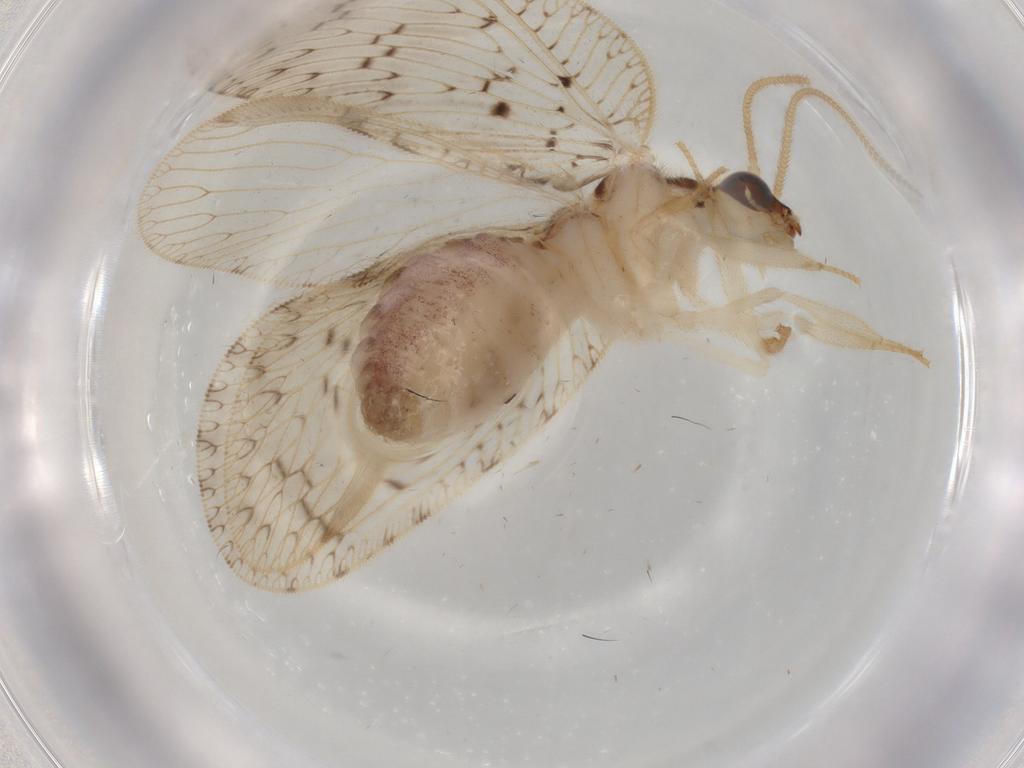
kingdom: Animalia
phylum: Arthropoda
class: Insecta
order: Neuroptera
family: Hemerobiidae
